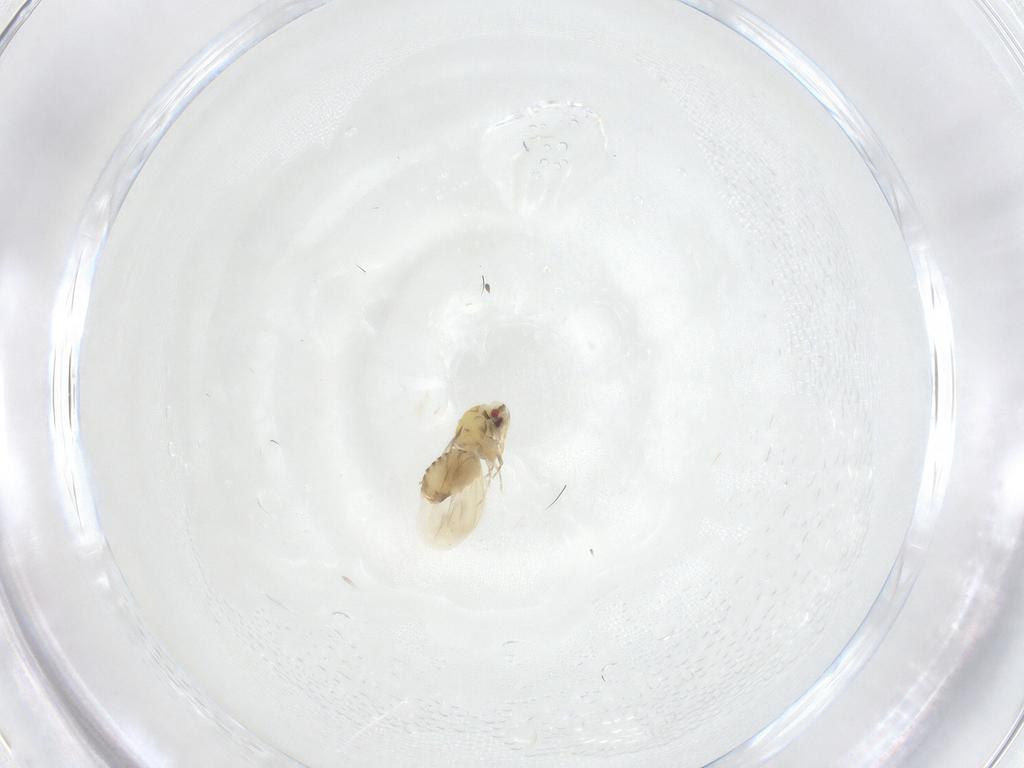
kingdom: Animalia
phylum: Arthropoda
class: Insecta
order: Hemiptera
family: Aleyrodidae
